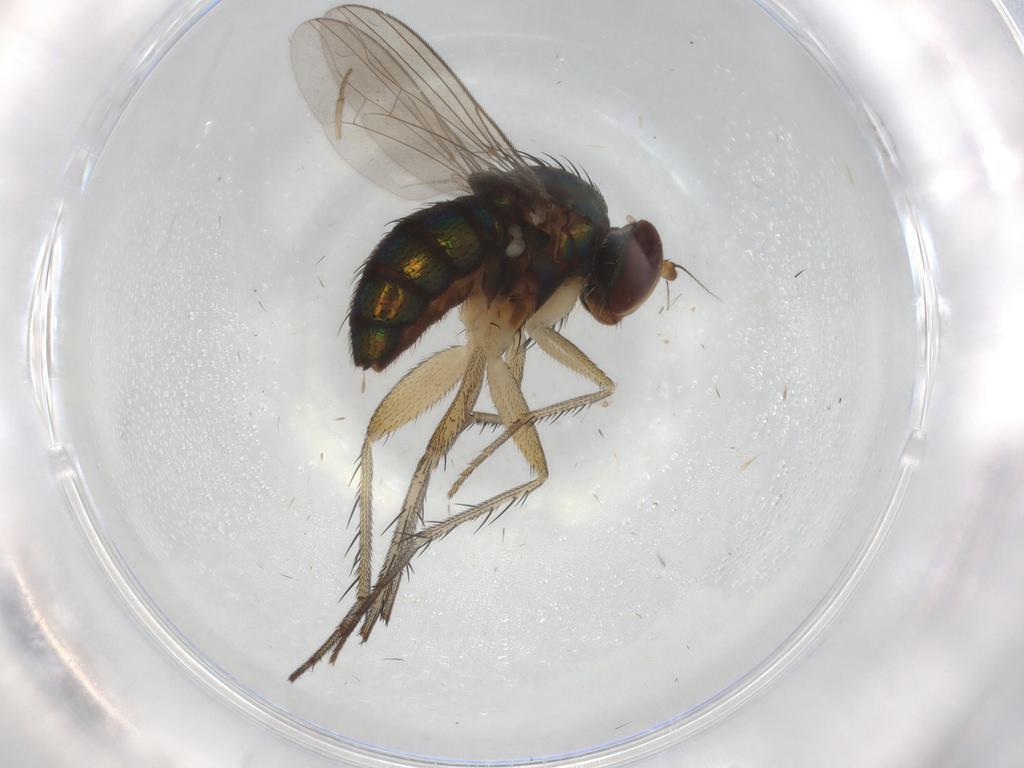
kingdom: Animalia
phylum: Arthropoda
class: Insecta
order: Diptera
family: Dolichopodidae
